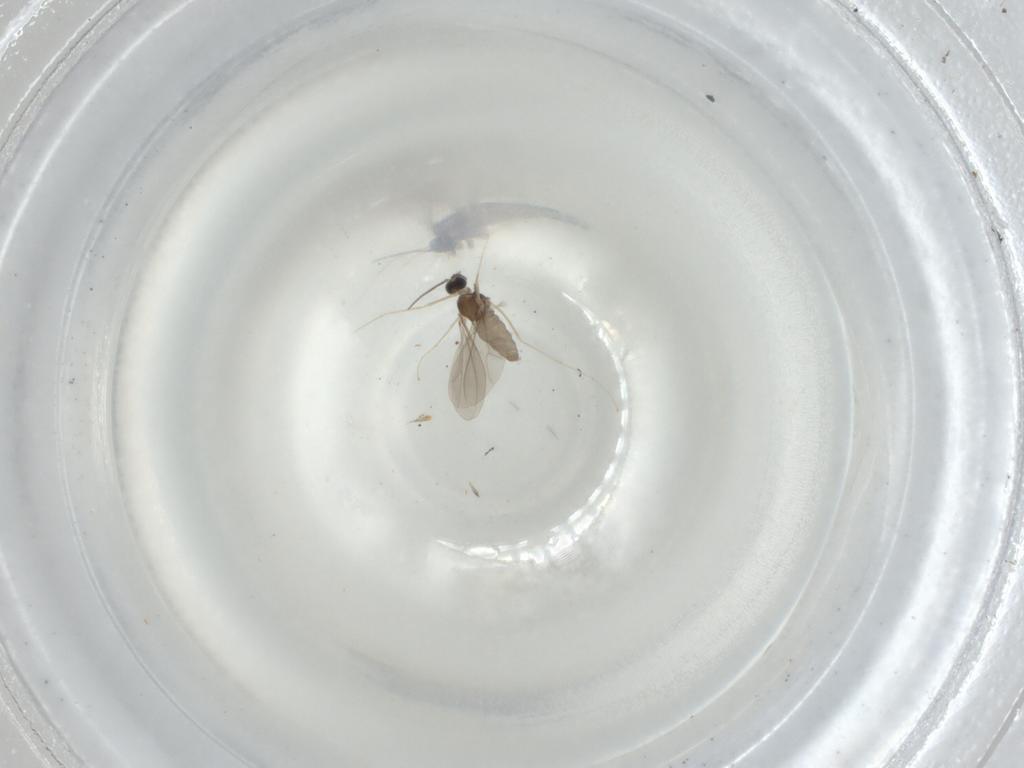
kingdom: Animalia
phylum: Arthropoda
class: Insecta
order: Diptera
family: Cecidomyiidae
